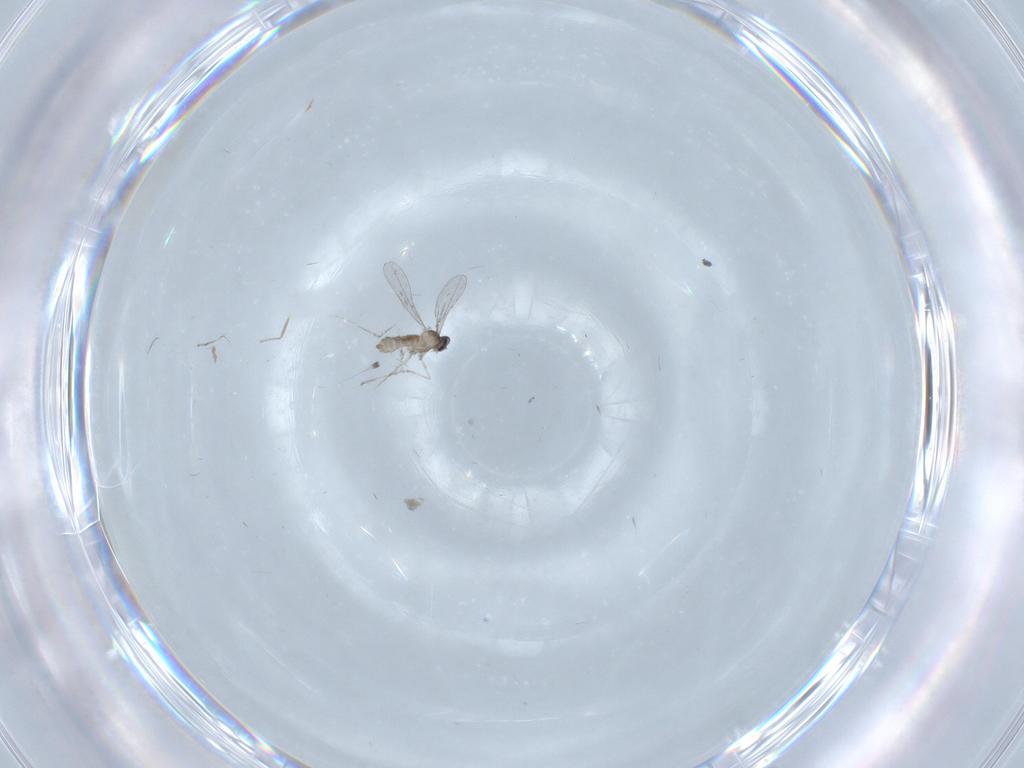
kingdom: Animalia
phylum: Arthropoda
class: Insecta
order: Diptera
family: Cecidomyiidae
